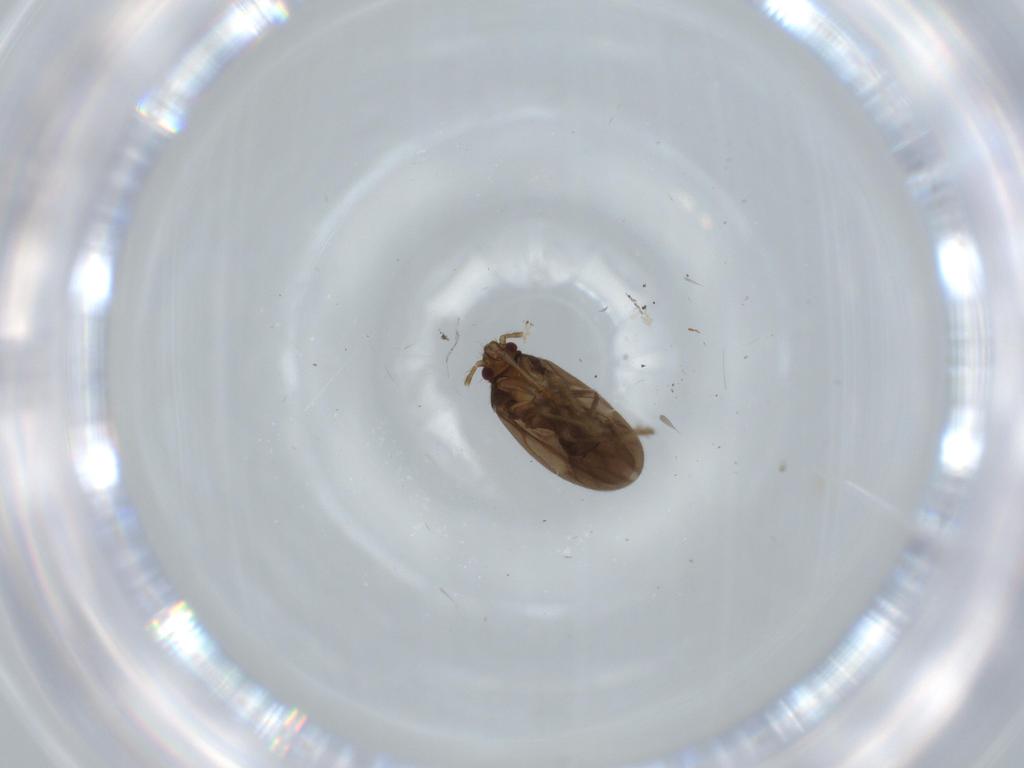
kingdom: Animalia
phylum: Arthropoda
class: Insecta
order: Hemiptera
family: Ceratocombidae
